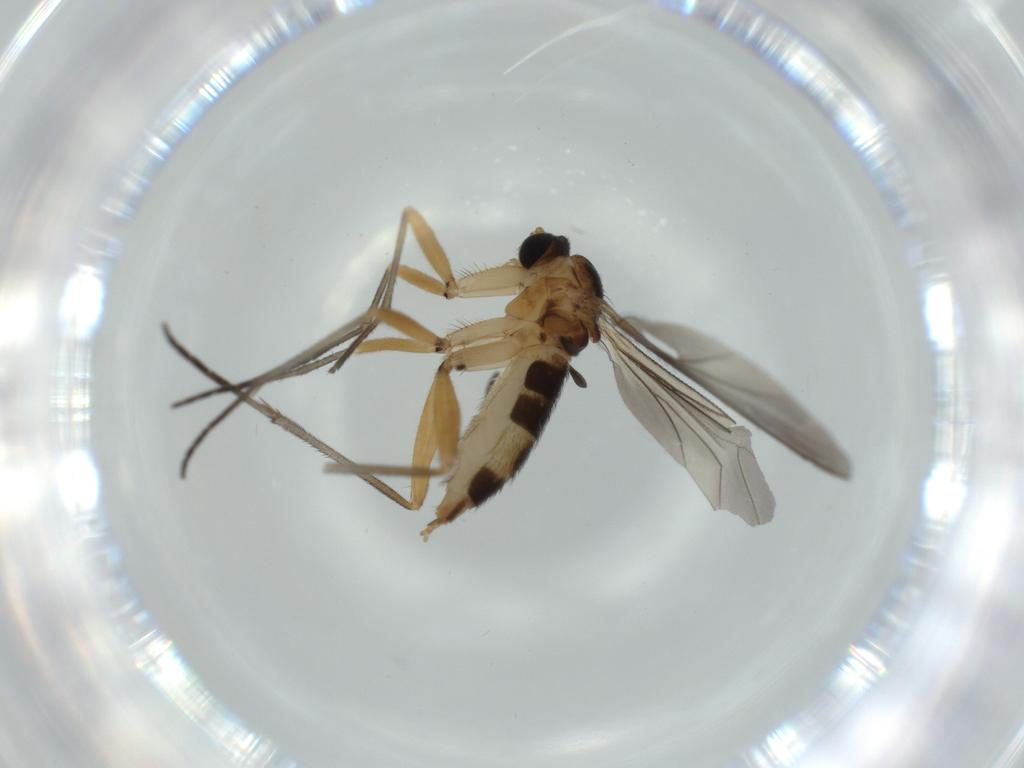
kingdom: Animalia
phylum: Arthropoda
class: Insecta
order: Diptera
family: Sciaridae
